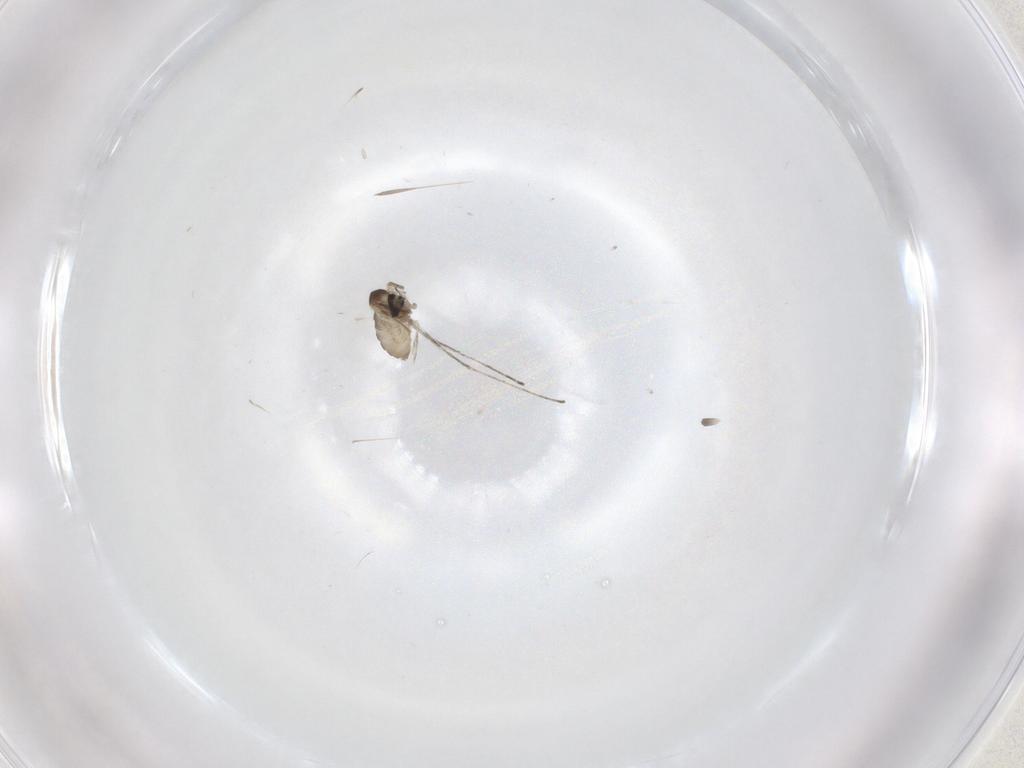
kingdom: Animalia
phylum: Arthropoda
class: Insecta
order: Diptera
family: Cecidomyiidae
